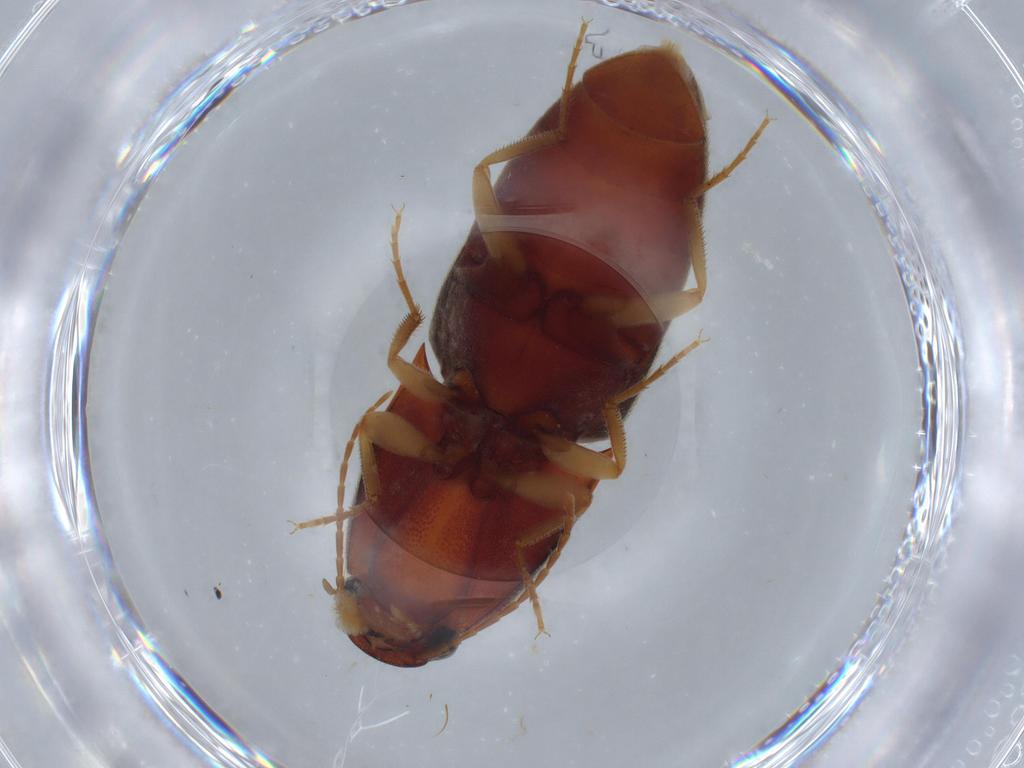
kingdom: Animalia
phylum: Arthropoda
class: Insecta
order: Coleoptera
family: Elateridae
